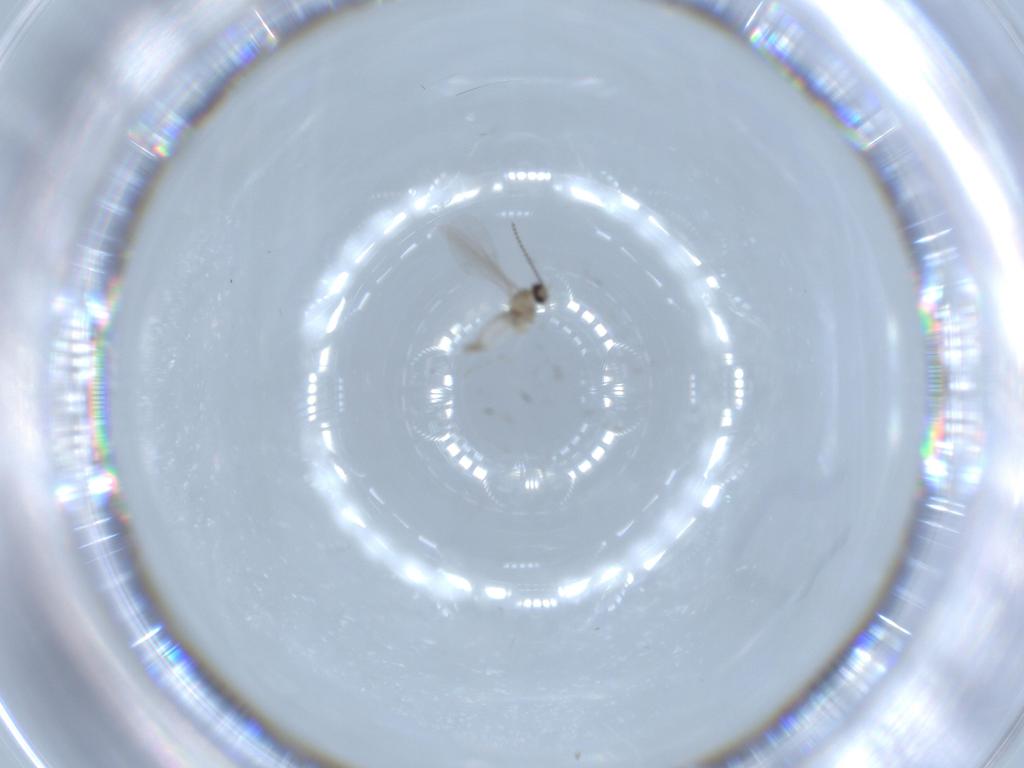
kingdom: Animalia
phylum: Arthropoda
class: Insecta
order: Diptera
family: Cecidomyiidae
